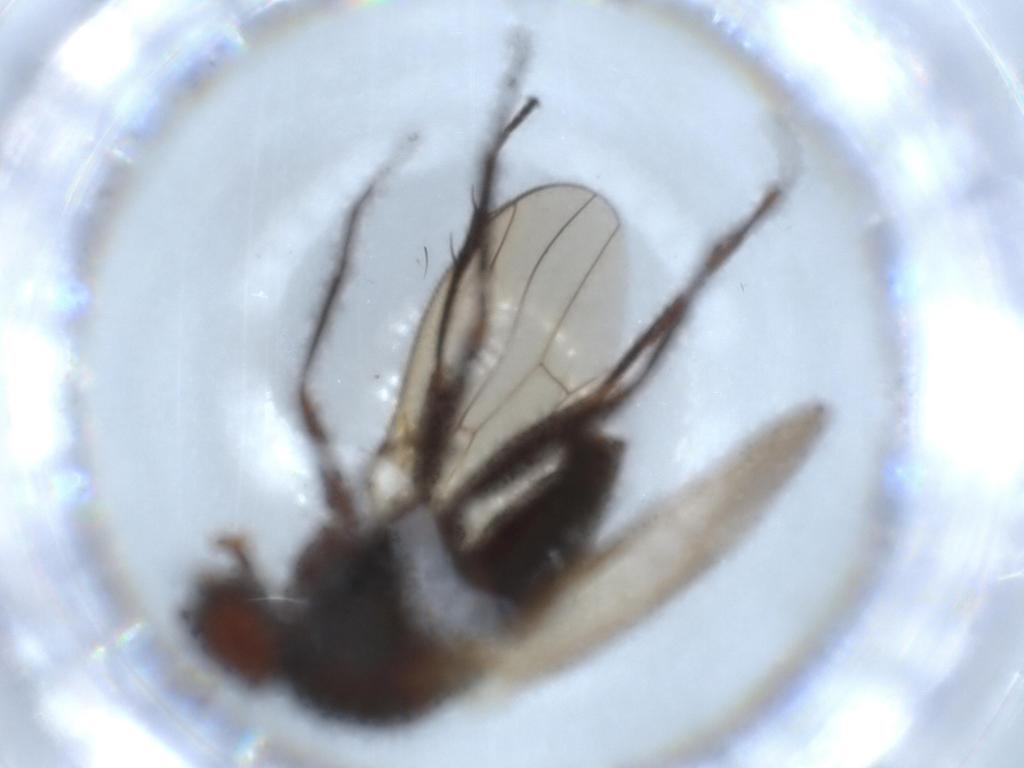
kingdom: Animalia
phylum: Arthropoda
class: Insecta
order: Diptera
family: Anthomyiidae
